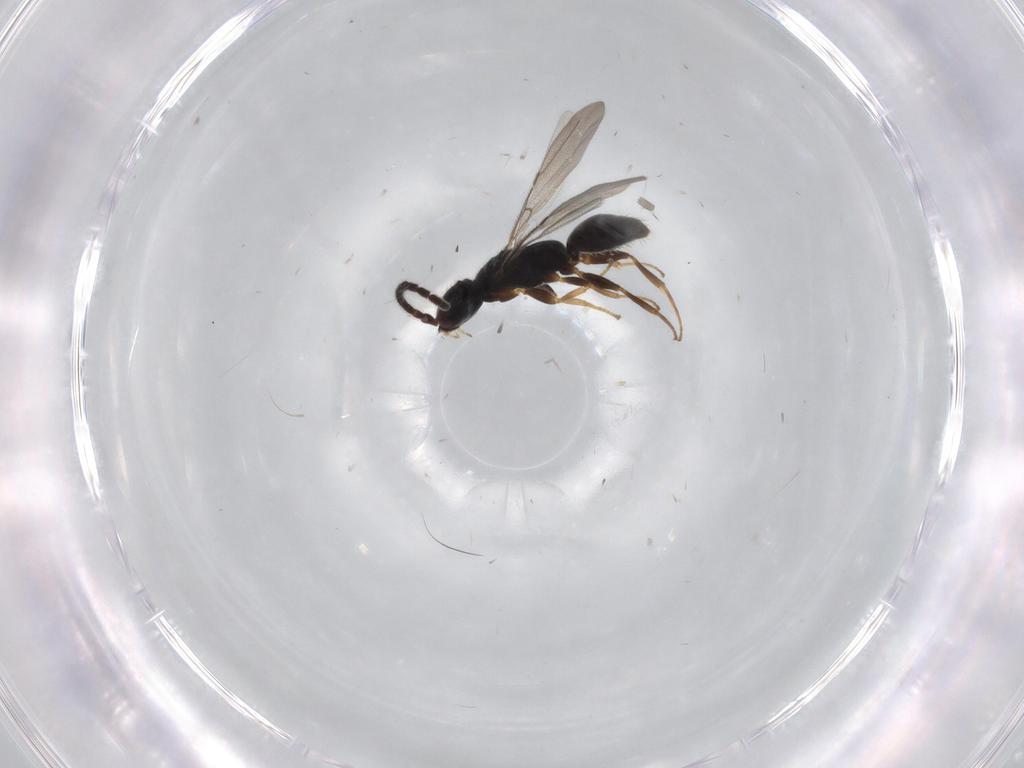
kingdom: Animalia
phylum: Arthropoda
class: Insecta
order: Hymenoptera
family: Bethylidae
